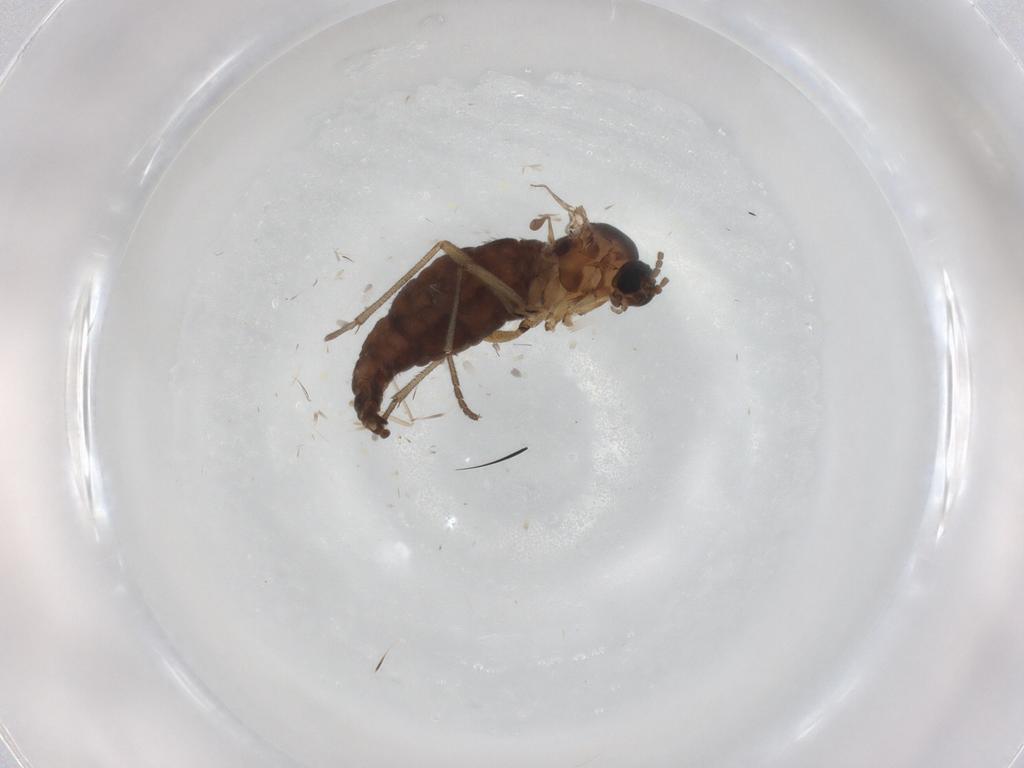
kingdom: Animalia
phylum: Arthropoda
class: Insecta
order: Diptera
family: Sciaridae
